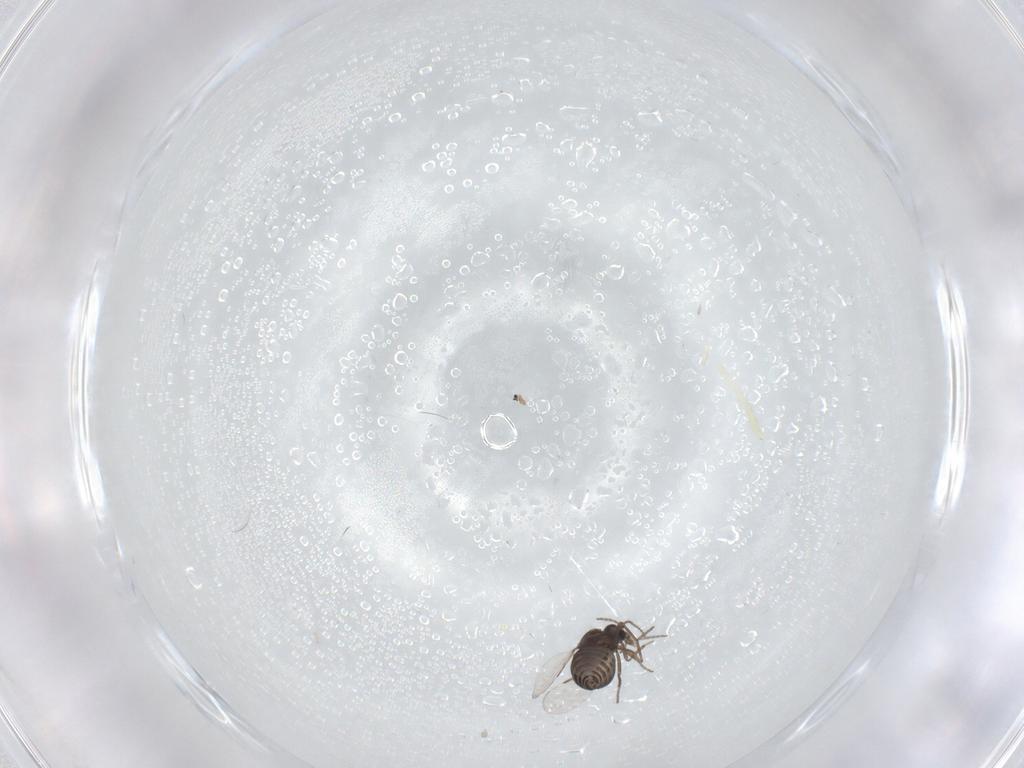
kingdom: Animalia
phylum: Arthropoda
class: Insecta
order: Diptera
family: Ceratopogonidae
